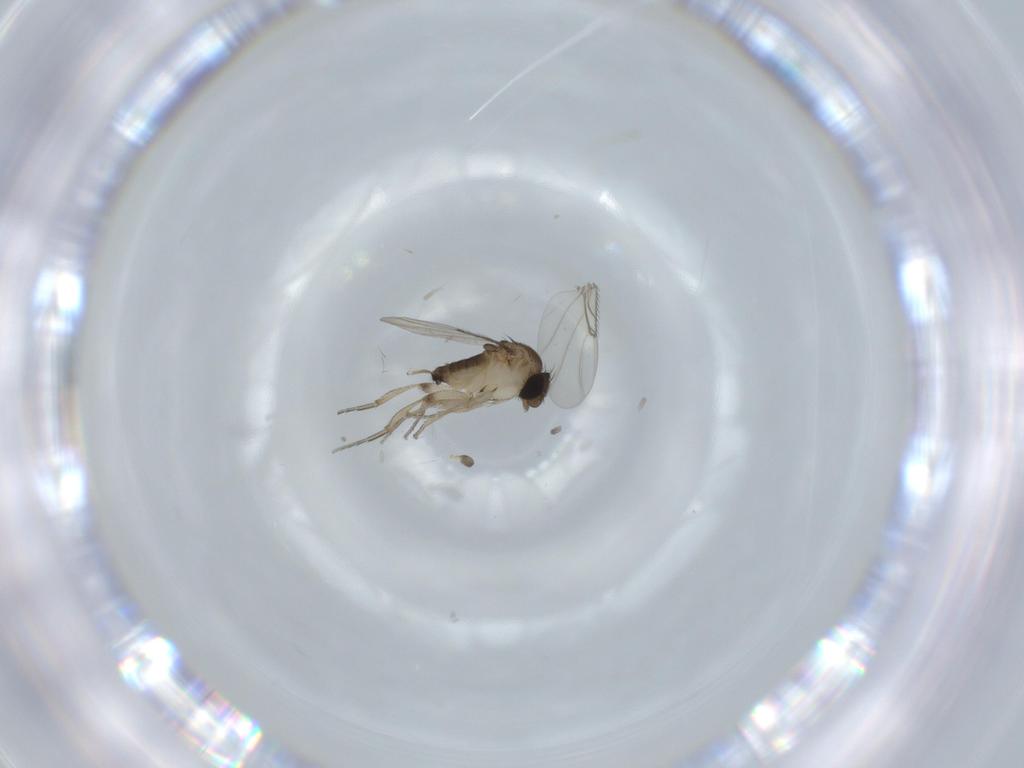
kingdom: Animalia
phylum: Arthropoda
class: Insecta
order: Diptera
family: Phoridae
